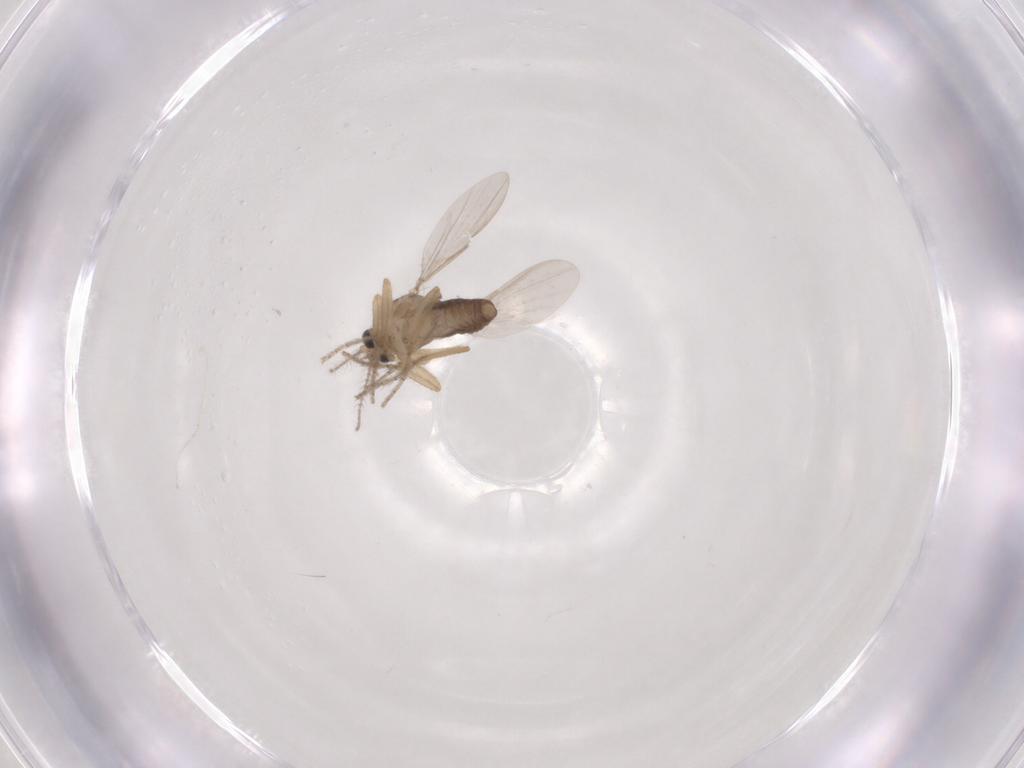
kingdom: Animalia
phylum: Arthropoda
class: Insecta
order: Diptera
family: Ceratopogonidae
